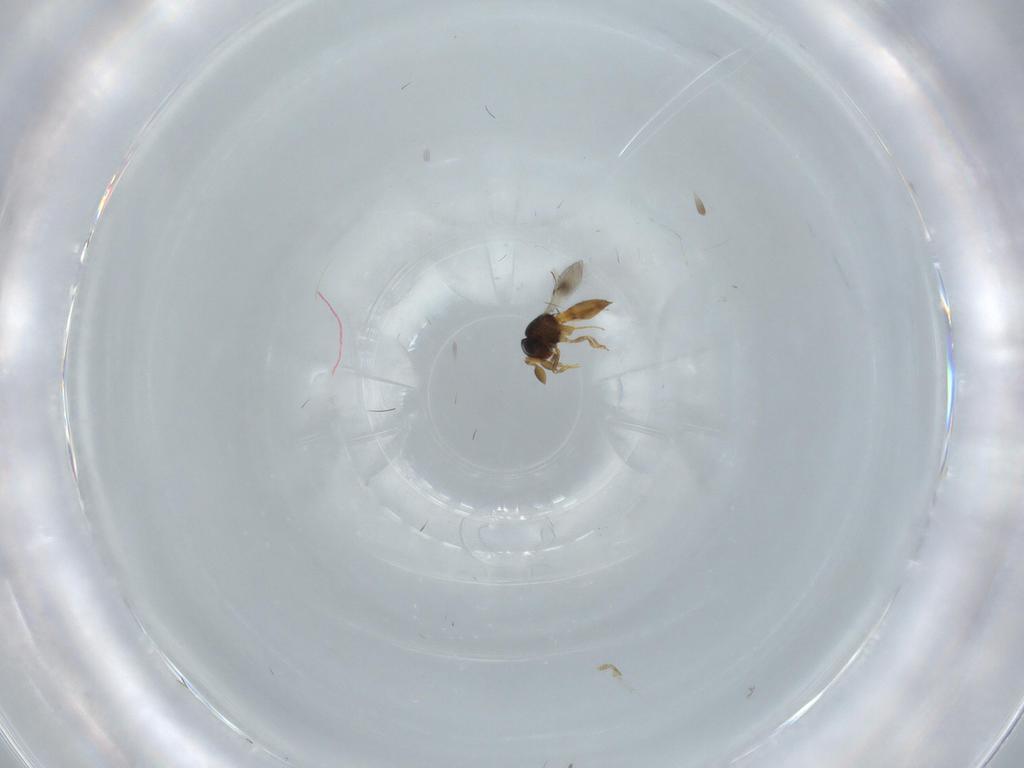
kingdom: Animalia
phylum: Arthropoda
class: Insecta
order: Hymenoptera
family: Scelionidae
